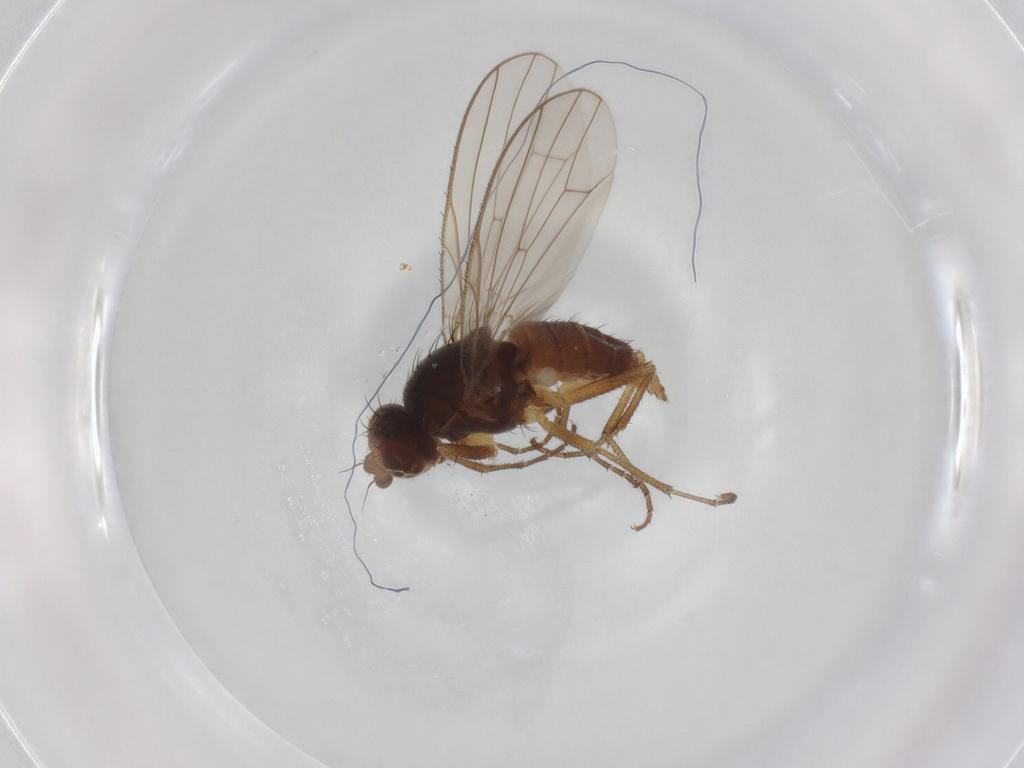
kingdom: Animalia
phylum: Arthropoda
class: Insecta
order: Diptera
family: Heleomyzidae
